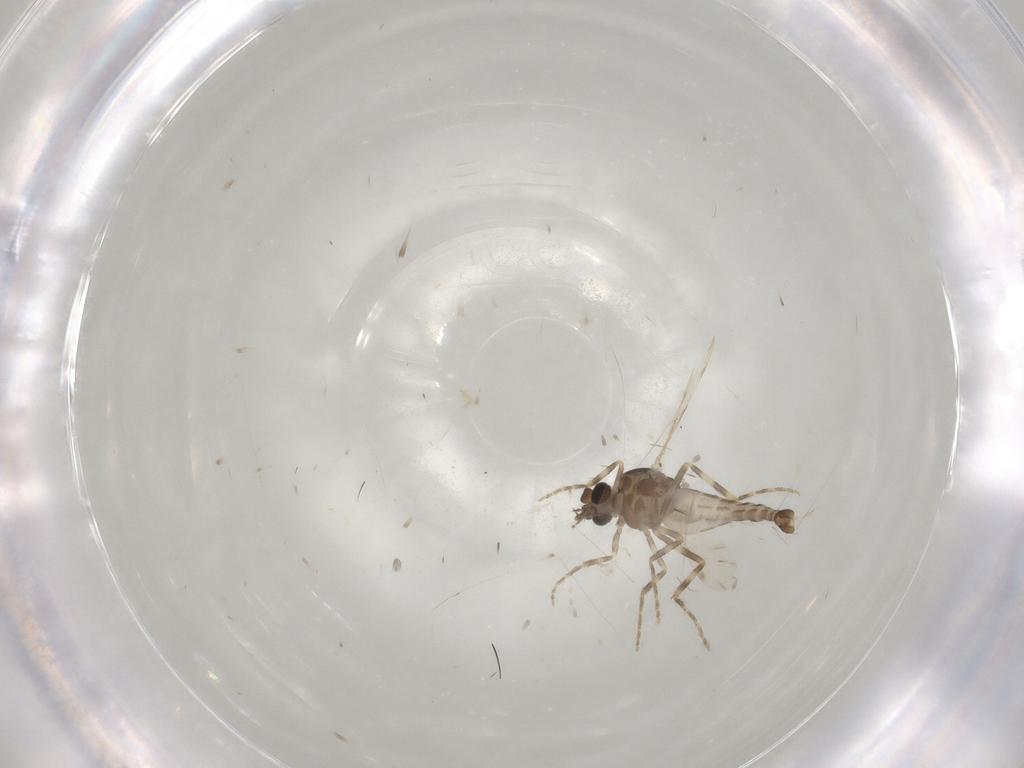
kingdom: Animalia
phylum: Arthropoda
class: Insecta
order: Diptera
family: Ceratopogonidae
